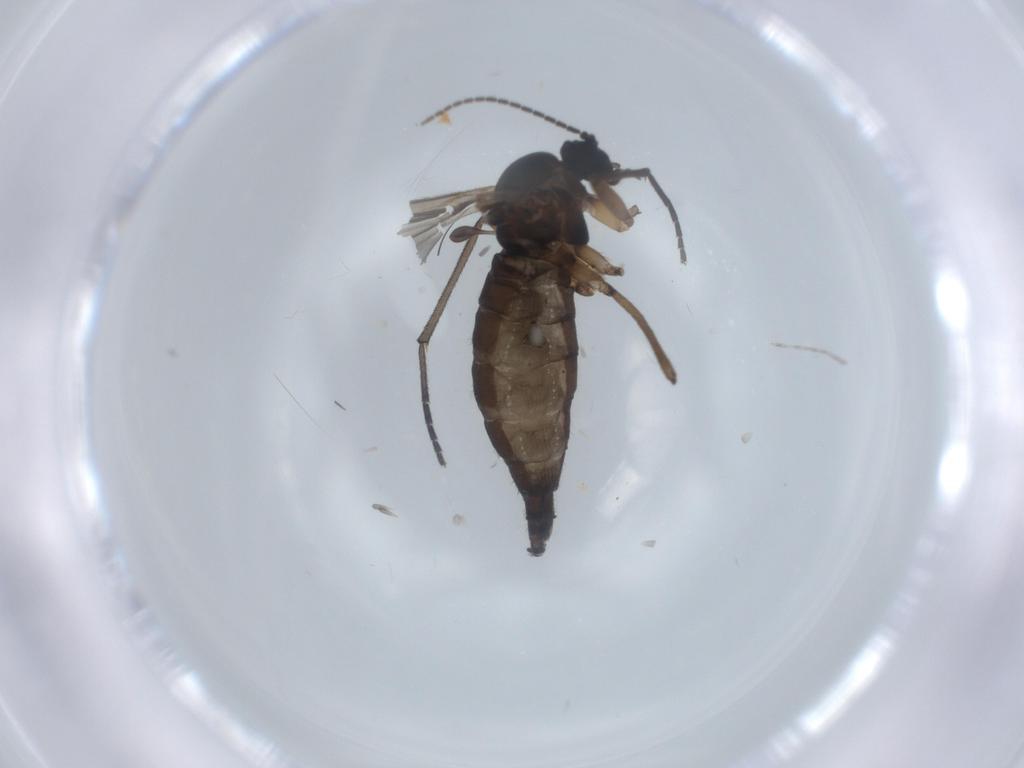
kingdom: Animalia
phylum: Arthropoda
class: Insecta
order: Diptera
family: Sciaridae
